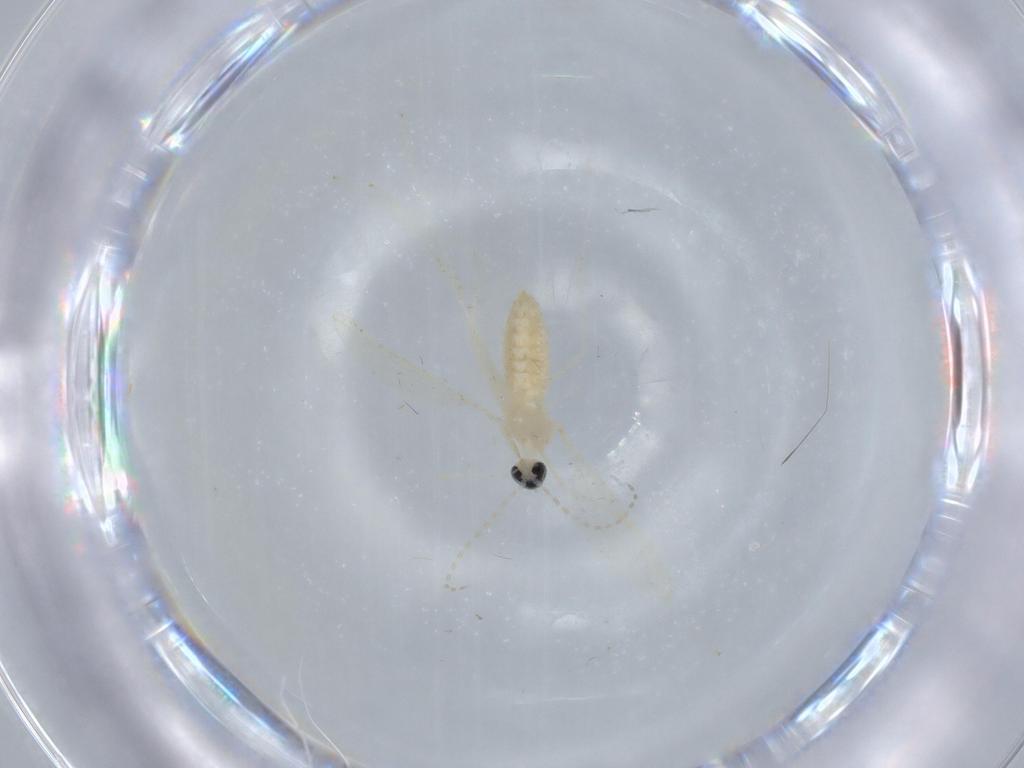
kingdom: Animalia
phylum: Arthropoda
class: Insecta
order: Diptera
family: Cecidomyiidae
